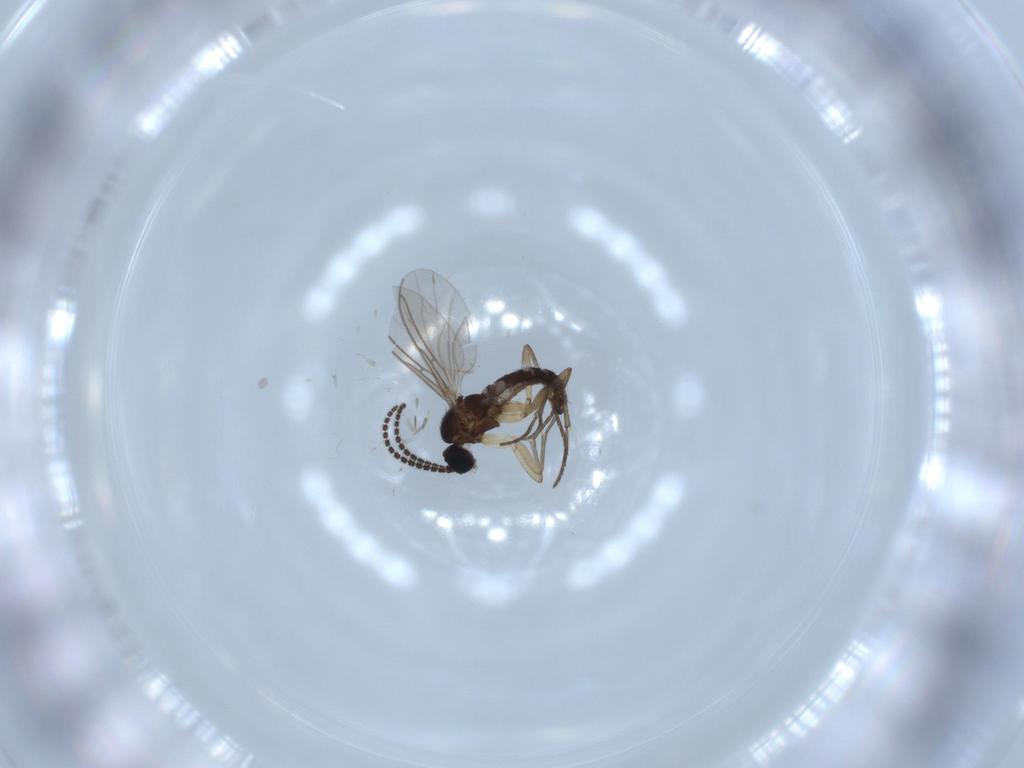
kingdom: Animalia
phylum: Arthropoda
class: Insecta
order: Diptera
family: Sciaridae
